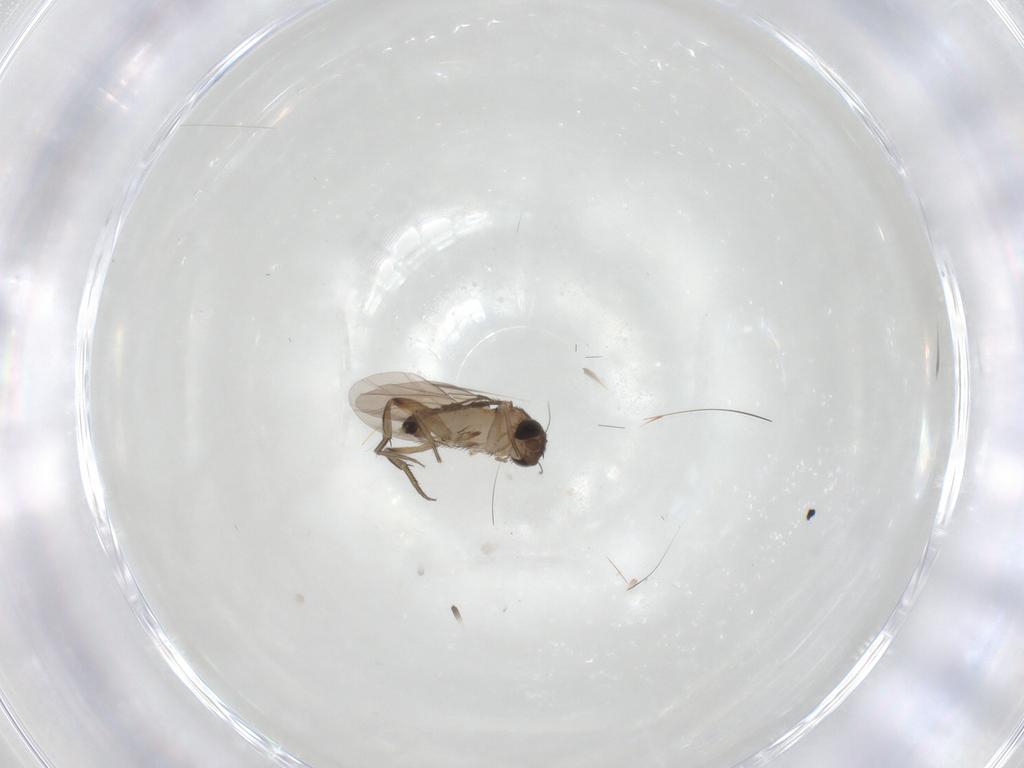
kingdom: Animalia
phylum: Arthropoda
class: Insecta
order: Diptera
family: Phoridae
